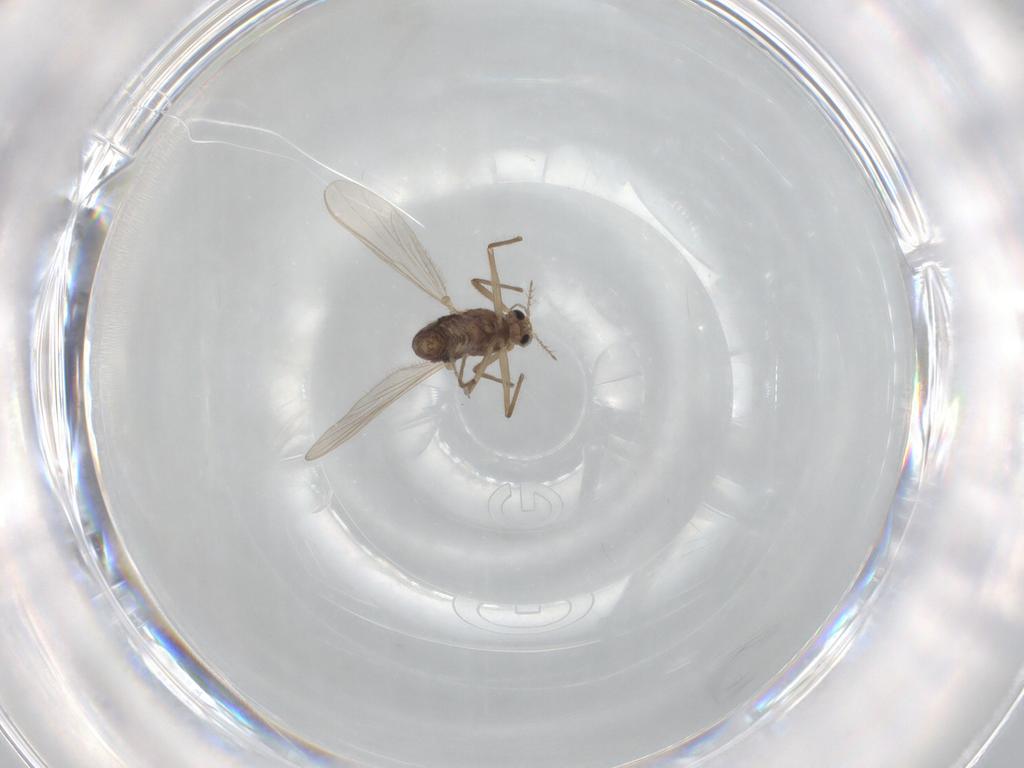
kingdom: Animalia
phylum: Arthropoda
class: Insecta
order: Diptera
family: Chironomidae
